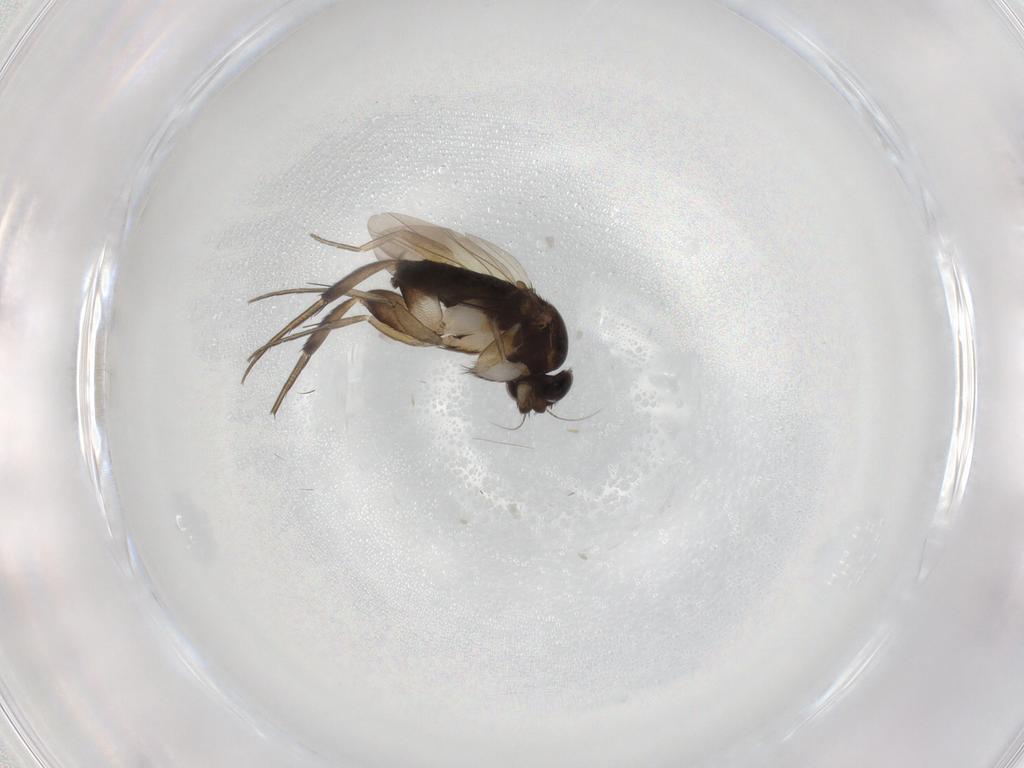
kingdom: Animalia
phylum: Arthropoda
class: Insecta
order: Diptera
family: Phoridae
